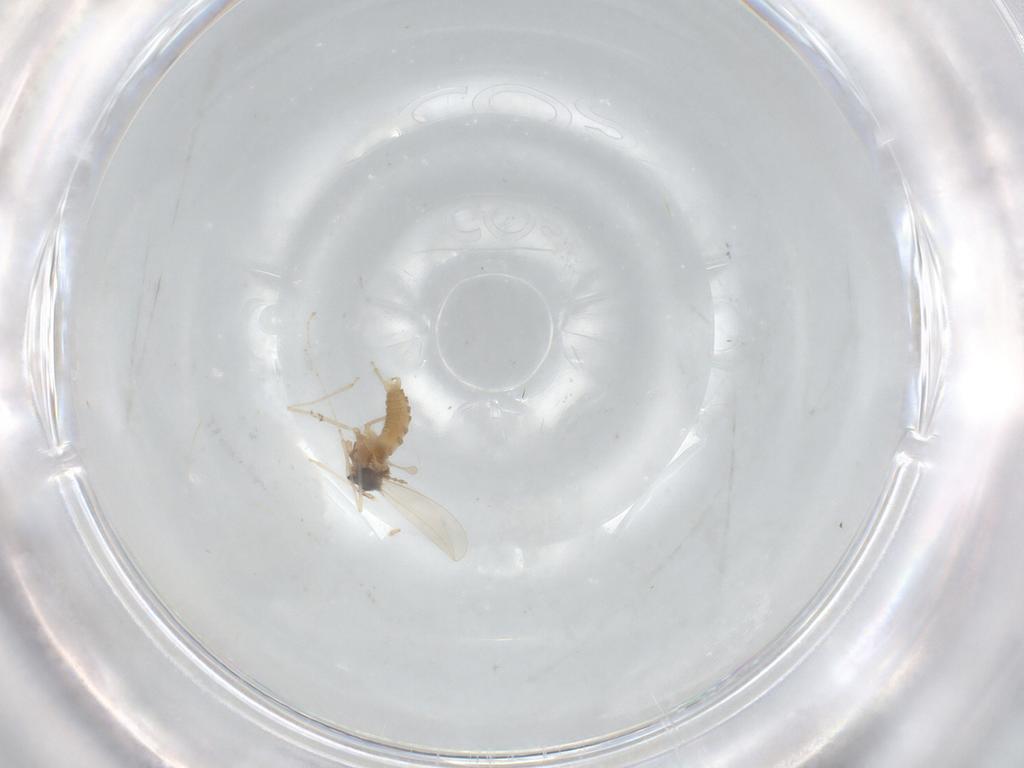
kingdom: Animalia
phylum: Arthropoda
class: Insecta
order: Diptera
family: Cecidomyiidae
